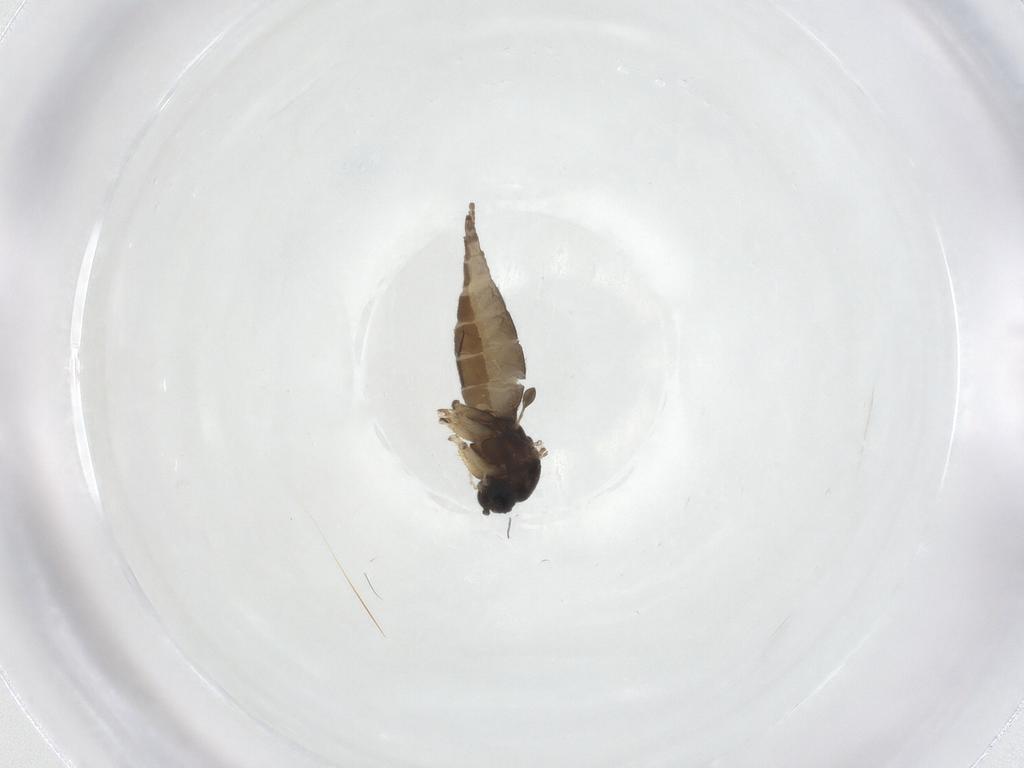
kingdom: Animalia
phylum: Arthropoda
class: Insecta
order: Diptera
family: Sciaridae
